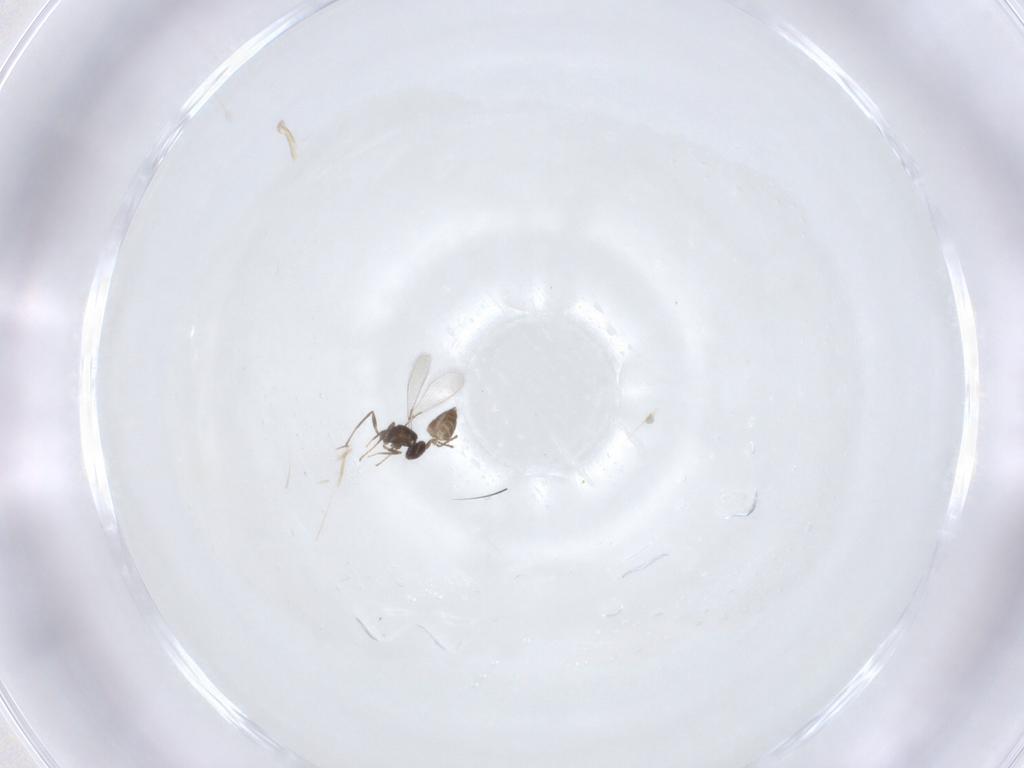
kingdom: Animalia
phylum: Arthropoda
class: Insecta
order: Hymenoptera
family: Mymaridae
